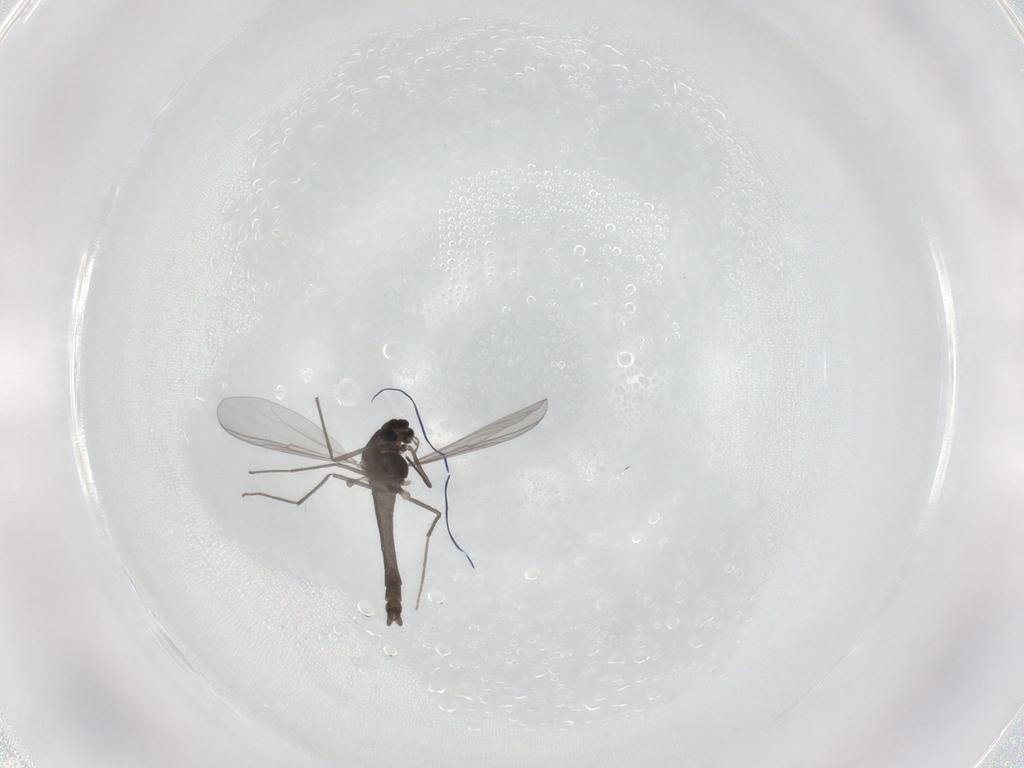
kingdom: Animalia
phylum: Arthropoda
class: Insecta
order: Diptera
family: Chironomidae
